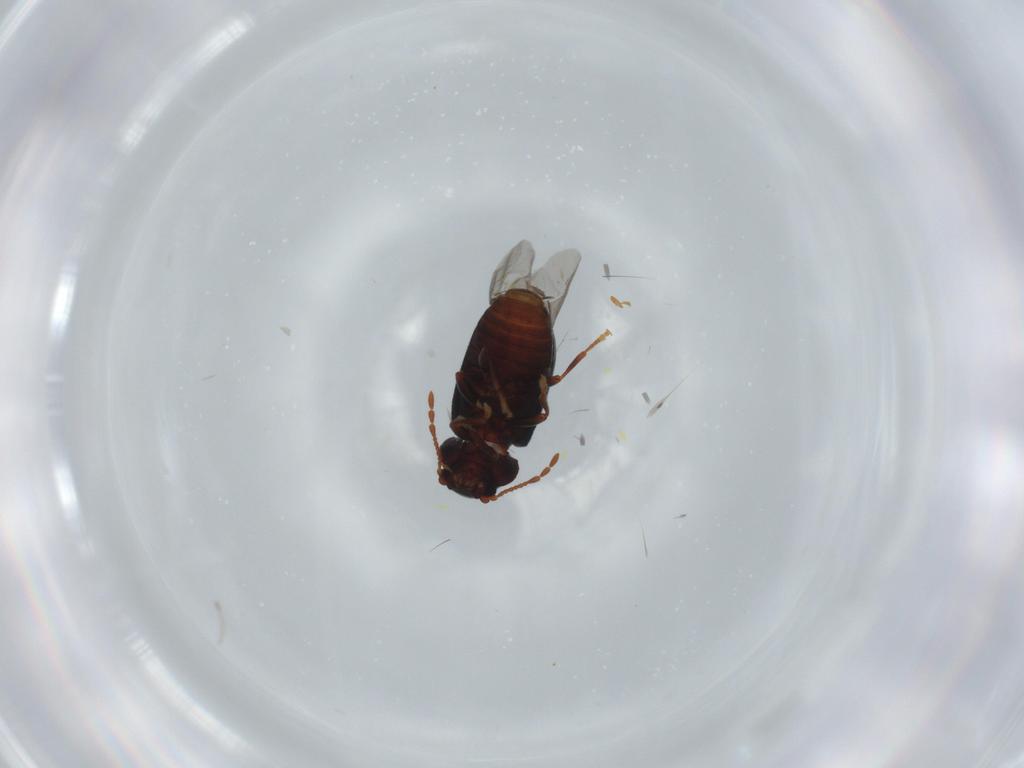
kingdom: Animalia
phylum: Arthropoda
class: Insecta
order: Coleoptera
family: Ptinidae
